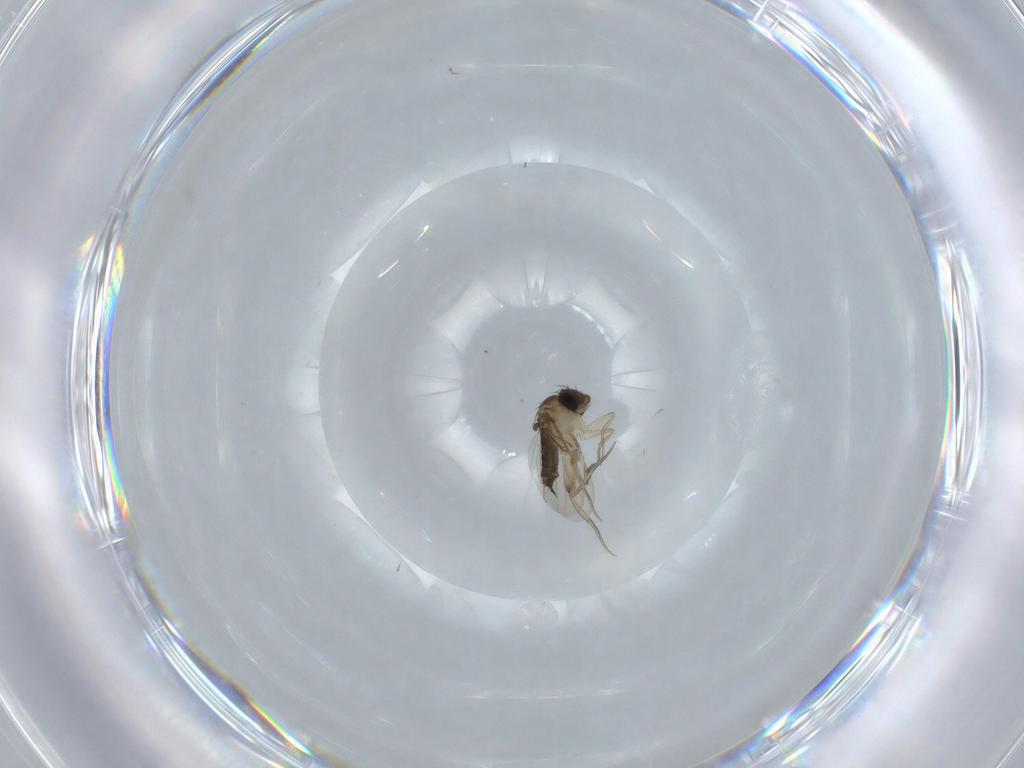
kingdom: Animalia
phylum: Arthropoda
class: Insecta
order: Diptera
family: Phoridae
